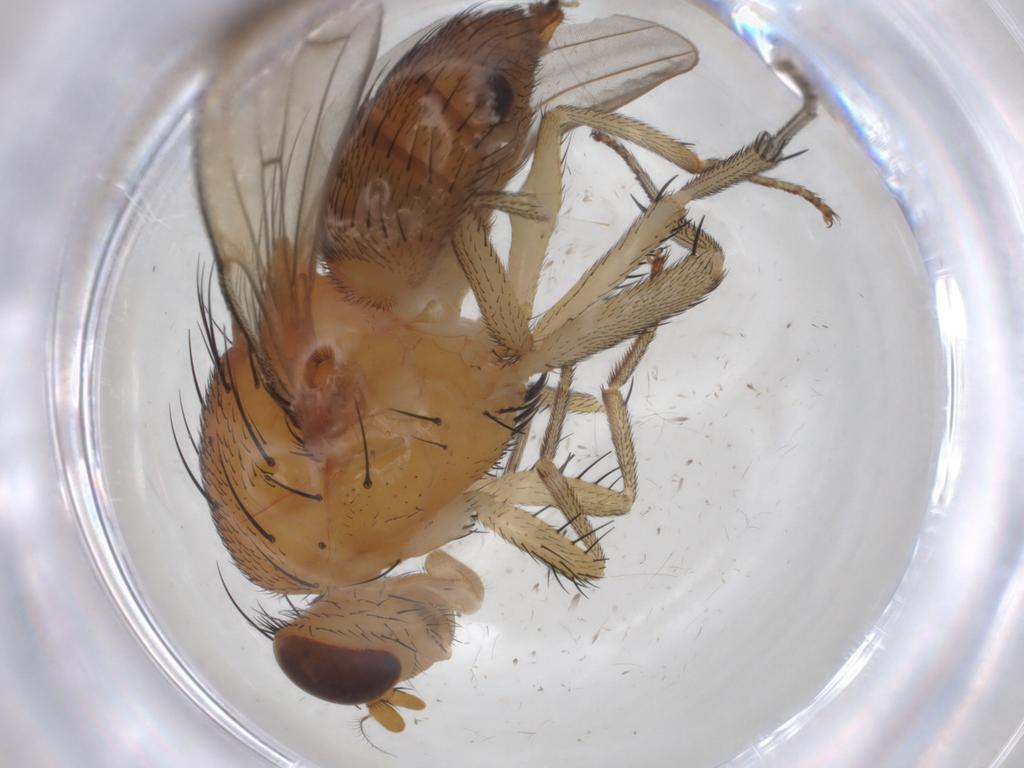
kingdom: Animalia
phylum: Arthropoda
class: Insecta
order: Diptera
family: Sphaeroceridae
